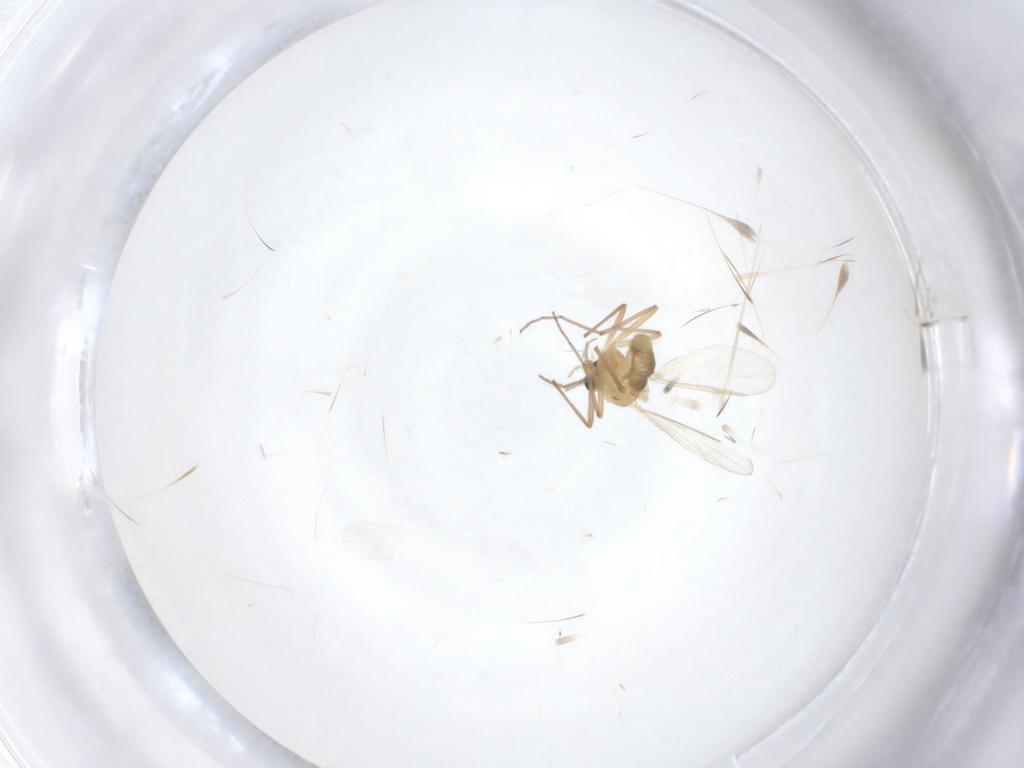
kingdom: Animalia
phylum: Arthropoda
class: Insecta
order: Diptera
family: Chironomidae
